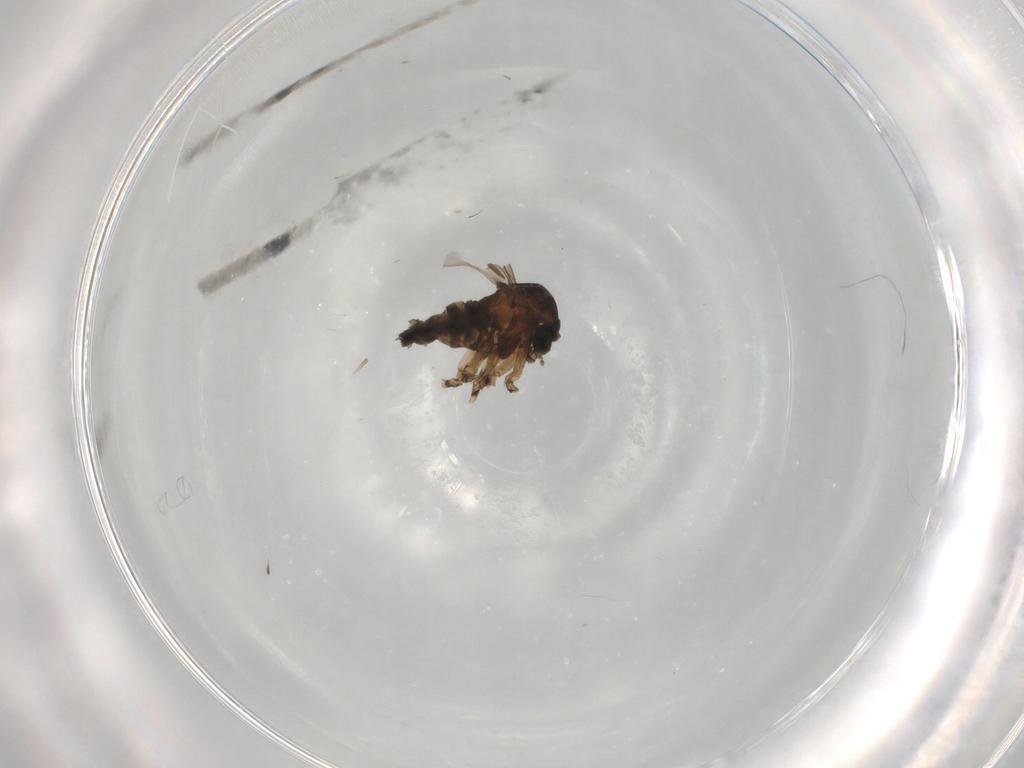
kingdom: Animalia
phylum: Arthropoda
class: Insecta
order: Diptera
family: Sciaridae
